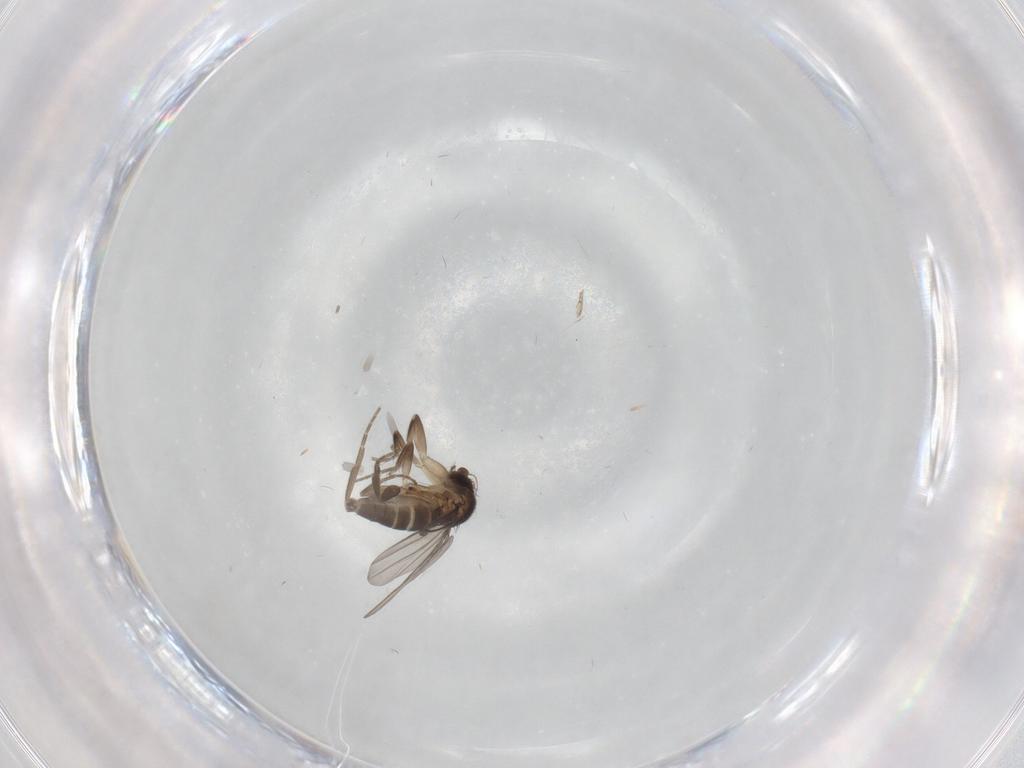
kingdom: Animalia
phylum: Arthropoda
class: Insecta
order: Diptera
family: Phoridae
